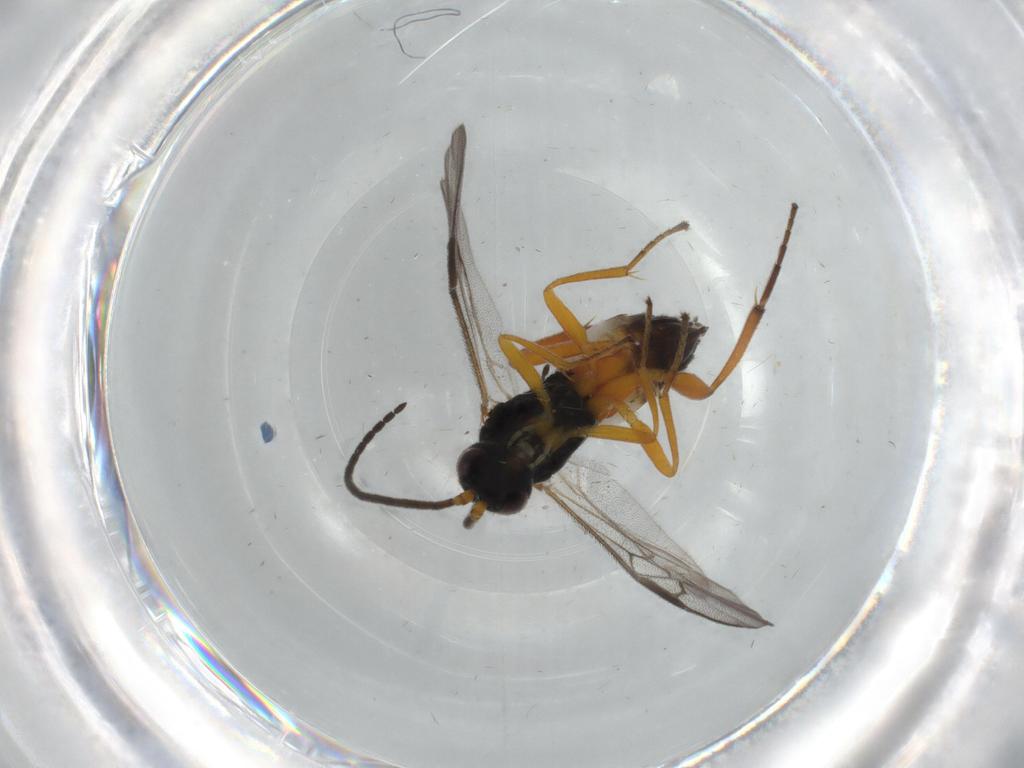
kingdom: Animalia
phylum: Arthropoda
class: Insecta
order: Hymenoptera
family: Braconidae
